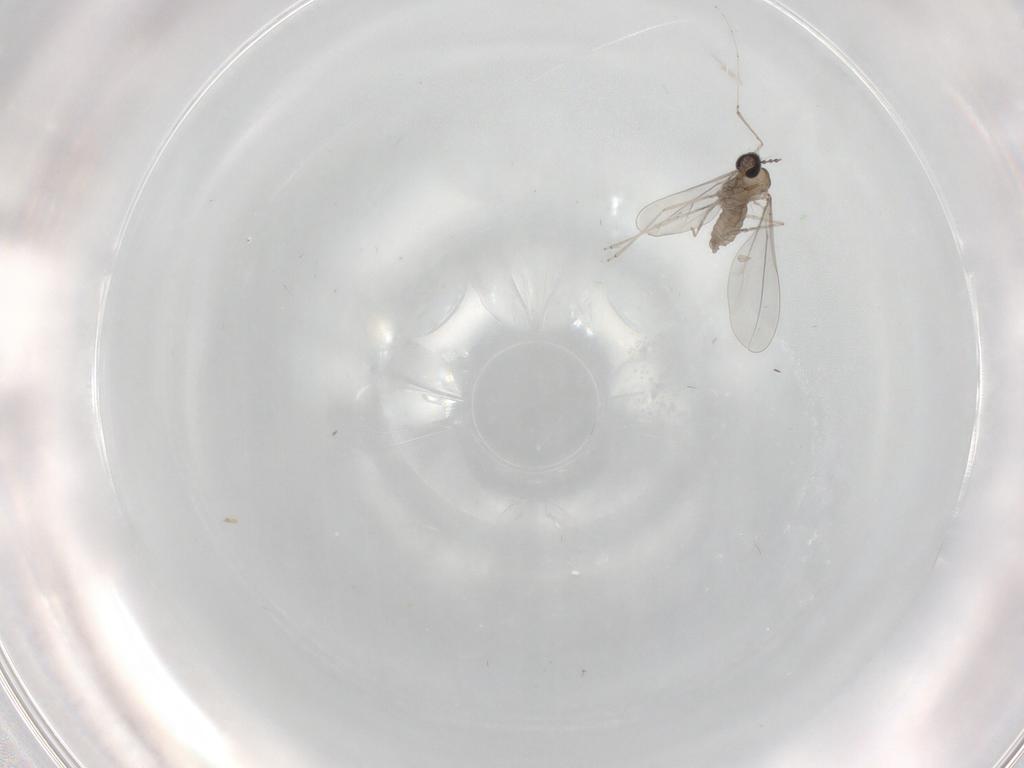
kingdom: Animalia
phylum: Arthropoda
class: Insecta
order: Diptera
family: Cecidomyiidae
